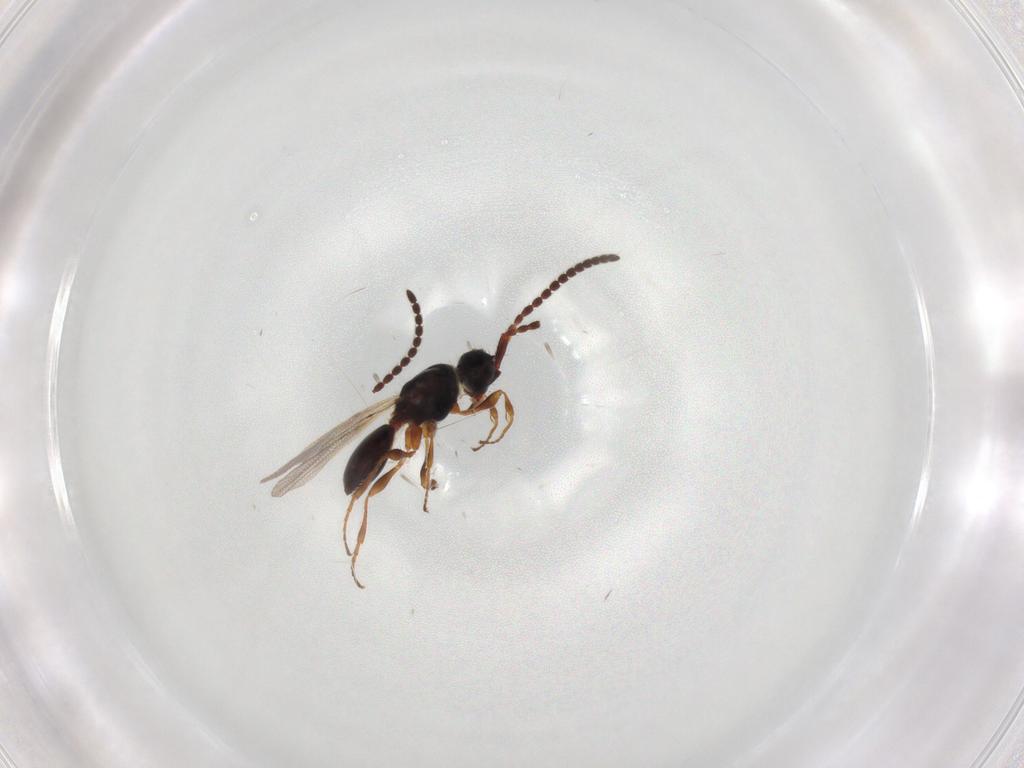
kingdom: Animalia
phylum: Arthropoda
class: Insecta
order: Hymenoptera
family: Diapriidae
